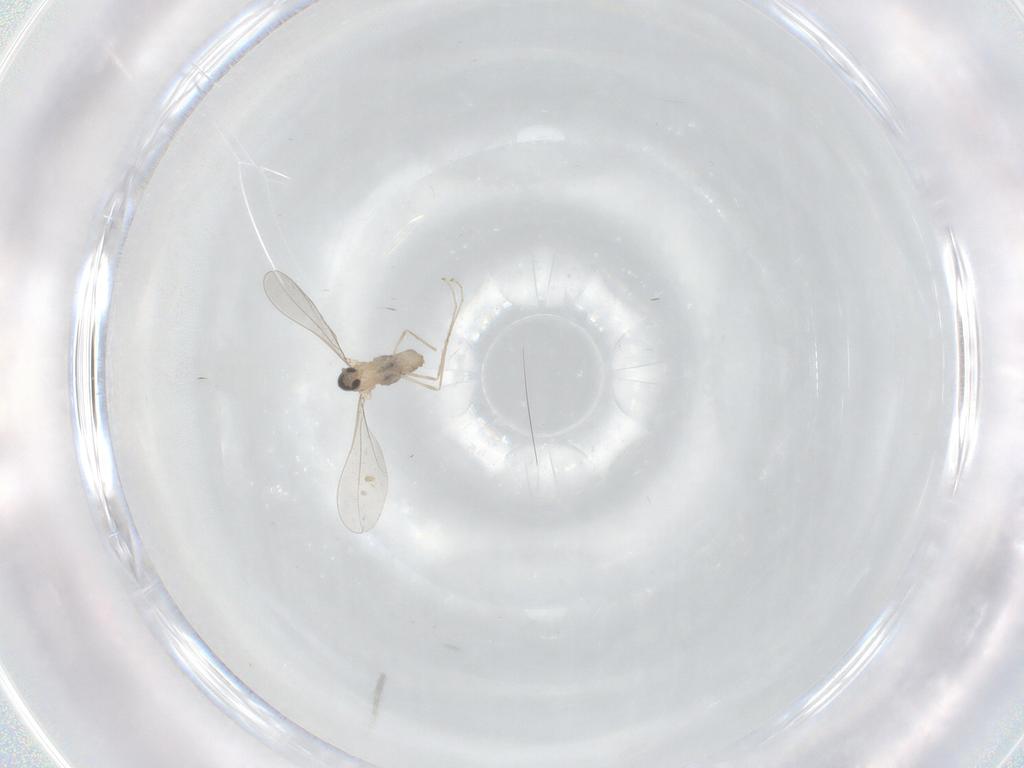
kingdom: Animalia
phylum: Arthropoda
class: Insecta
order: Diptera
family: Cecidomyiidae
